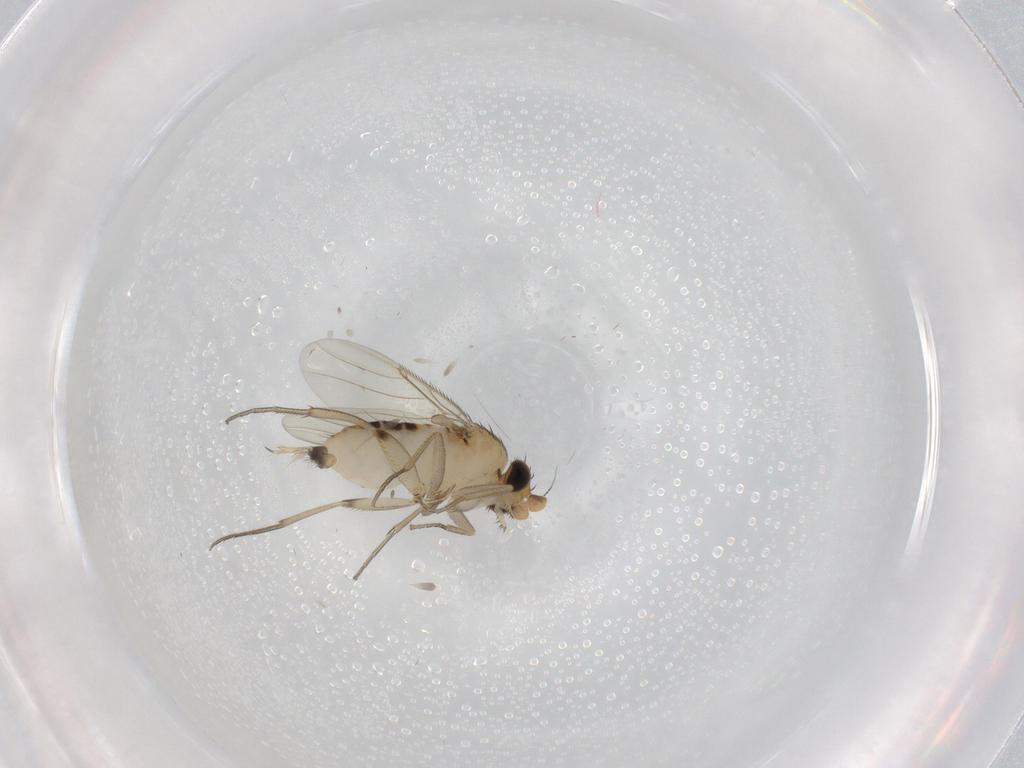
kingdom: Animalia
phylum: Arthropoda
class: Insecta
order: Diptera
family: Phoridae
